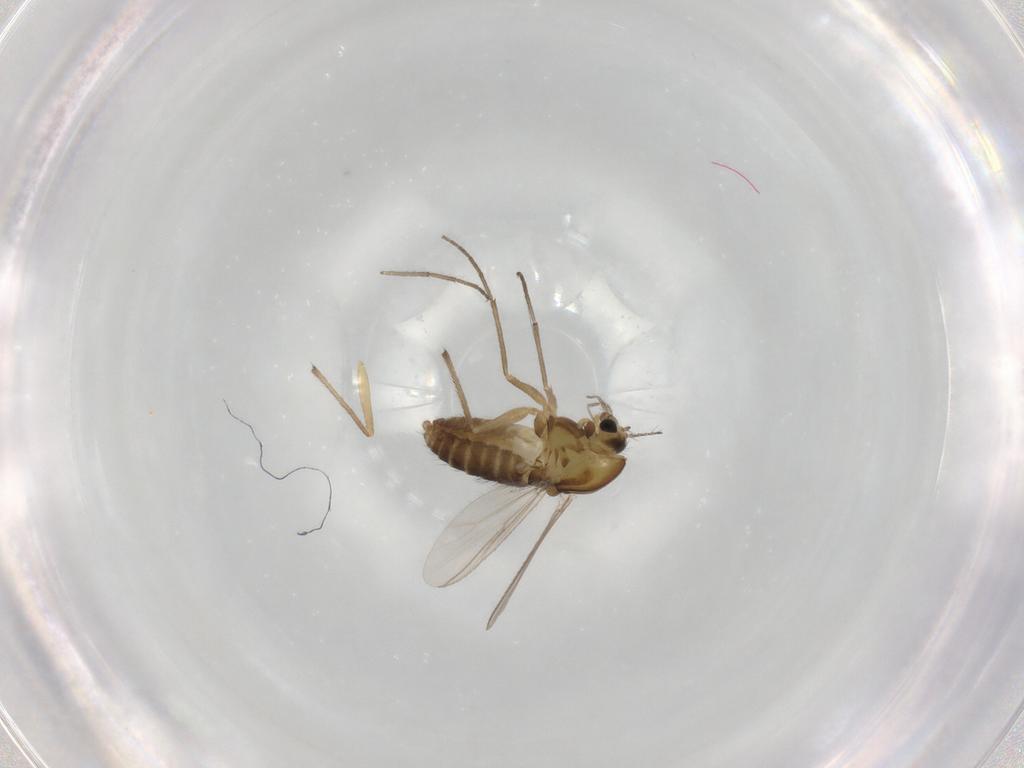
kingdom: Animalia
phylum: Arthropoda
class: Insecta
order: Diptera
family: Chironomidae
